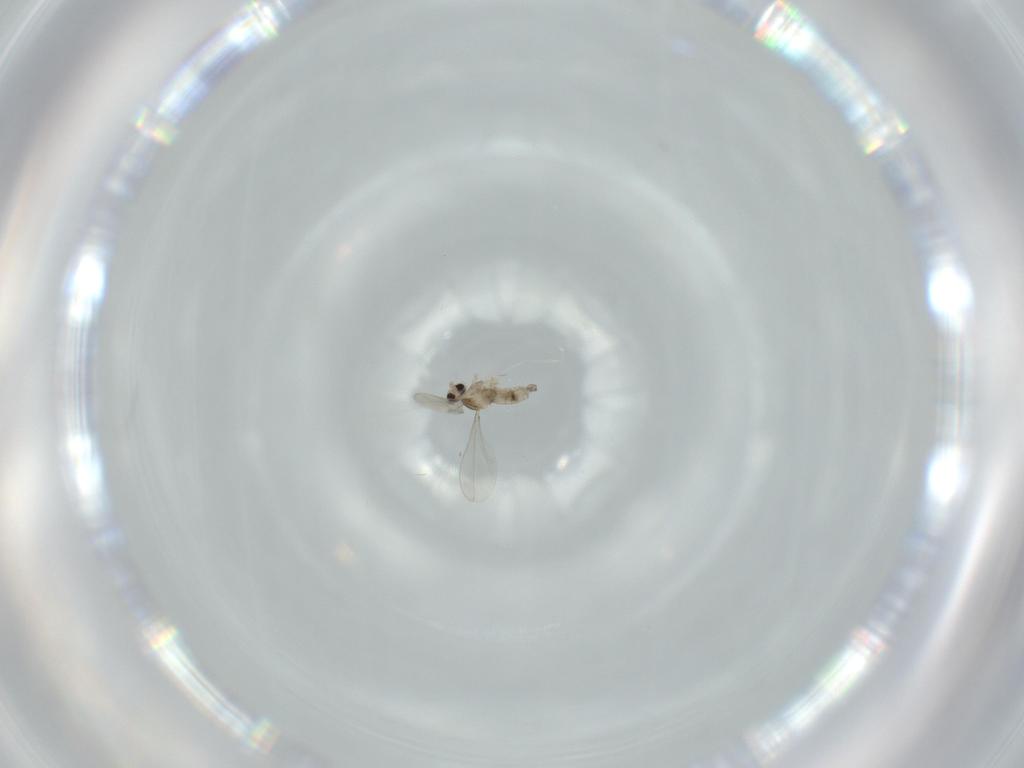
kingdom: Animalia
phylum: Arthropoda
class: Insecta
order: Diptera
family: Cecidomyiidae
